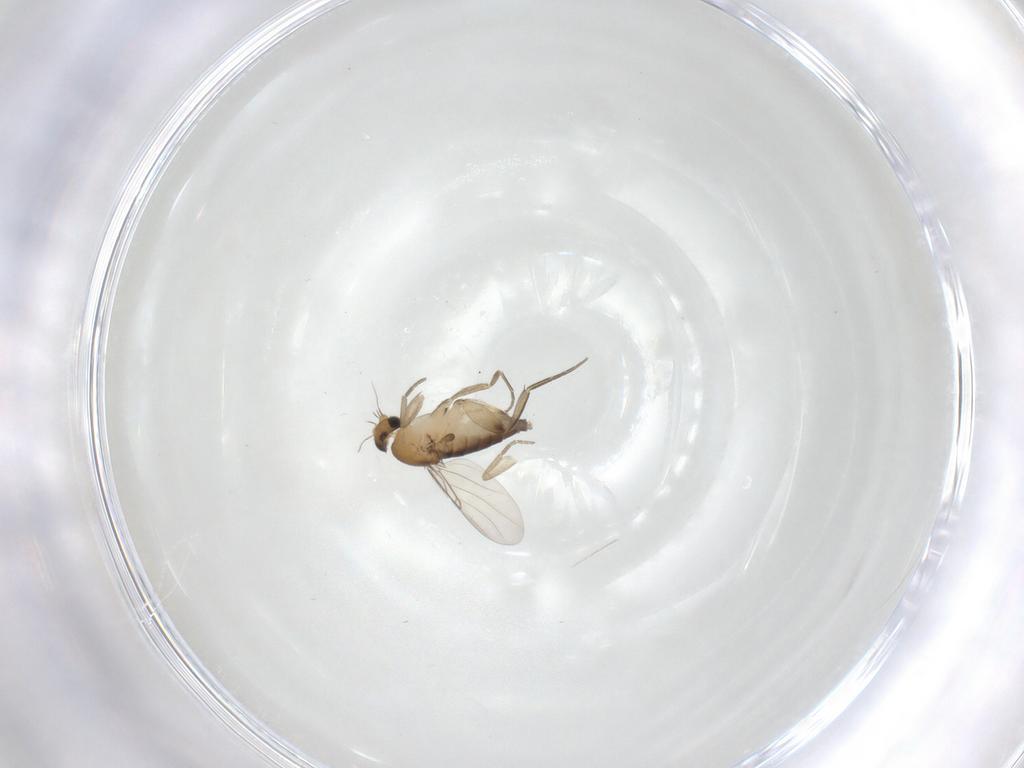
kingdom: Animalia
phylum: Arthropoda
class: Insecta
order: Diptera
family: Phoridae
